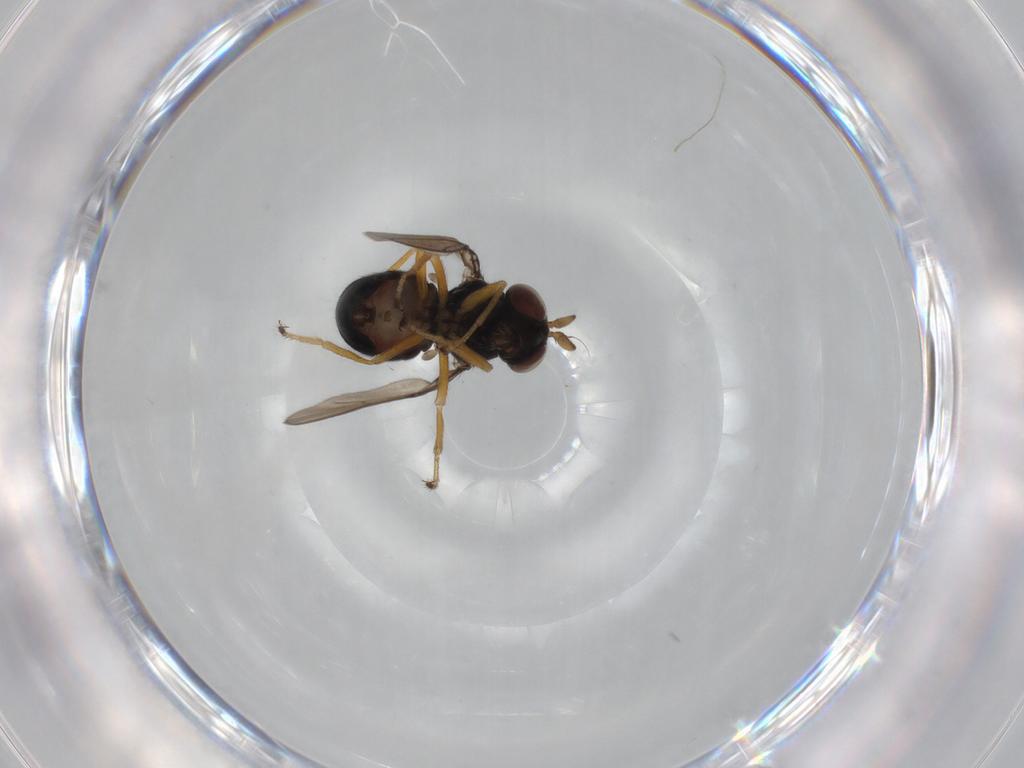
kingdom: Animalia
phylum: Arthropoda
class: Insecta
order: Diptera
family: Ephydridae
